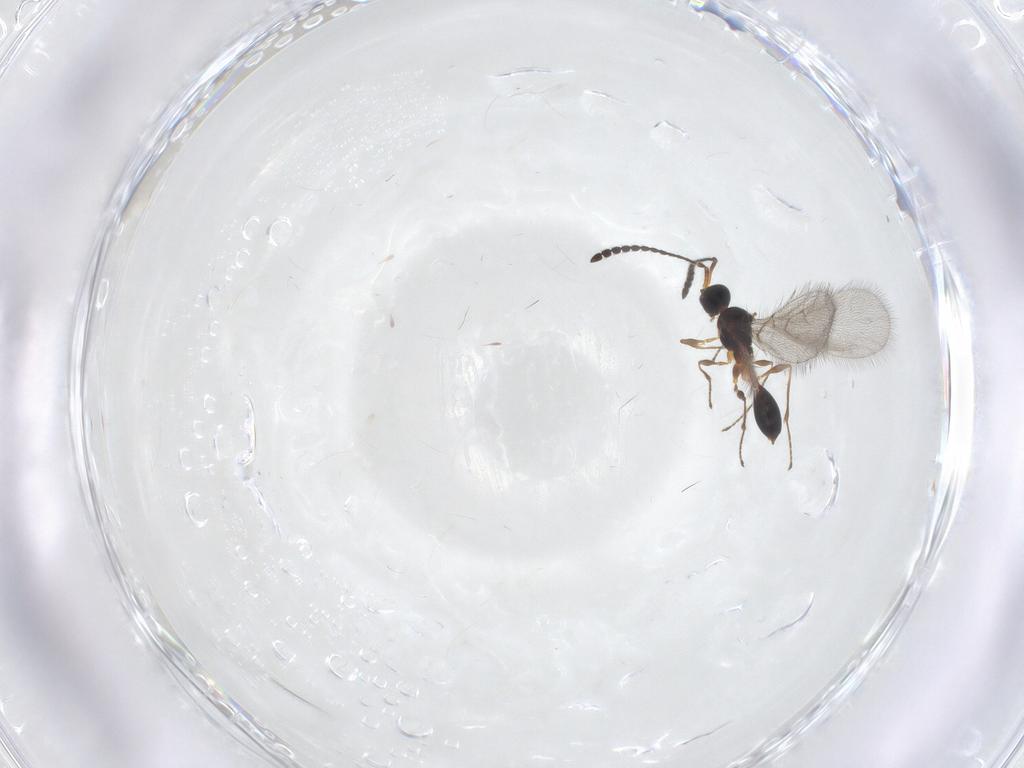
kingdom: Animalia
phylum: Arthropoda
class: Insecta
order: Hymenoptera
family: Diapriidae
